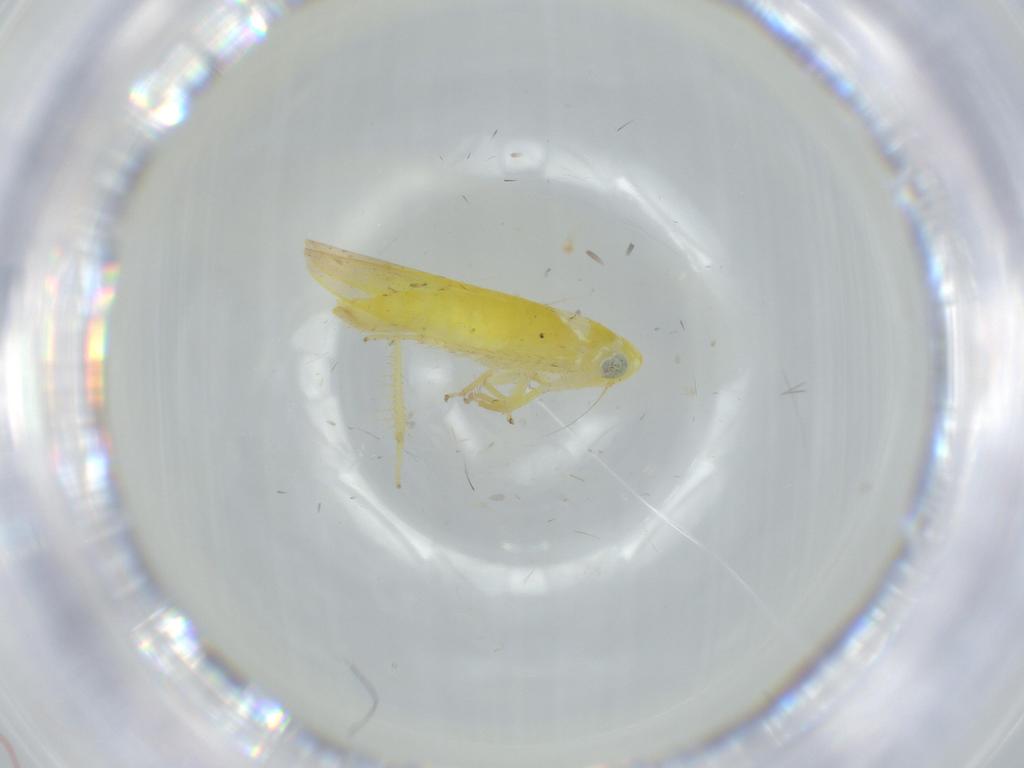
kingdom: Animalia
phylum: Arthropoda
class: Insecta
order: Hemiptera
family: Cicadellidae
